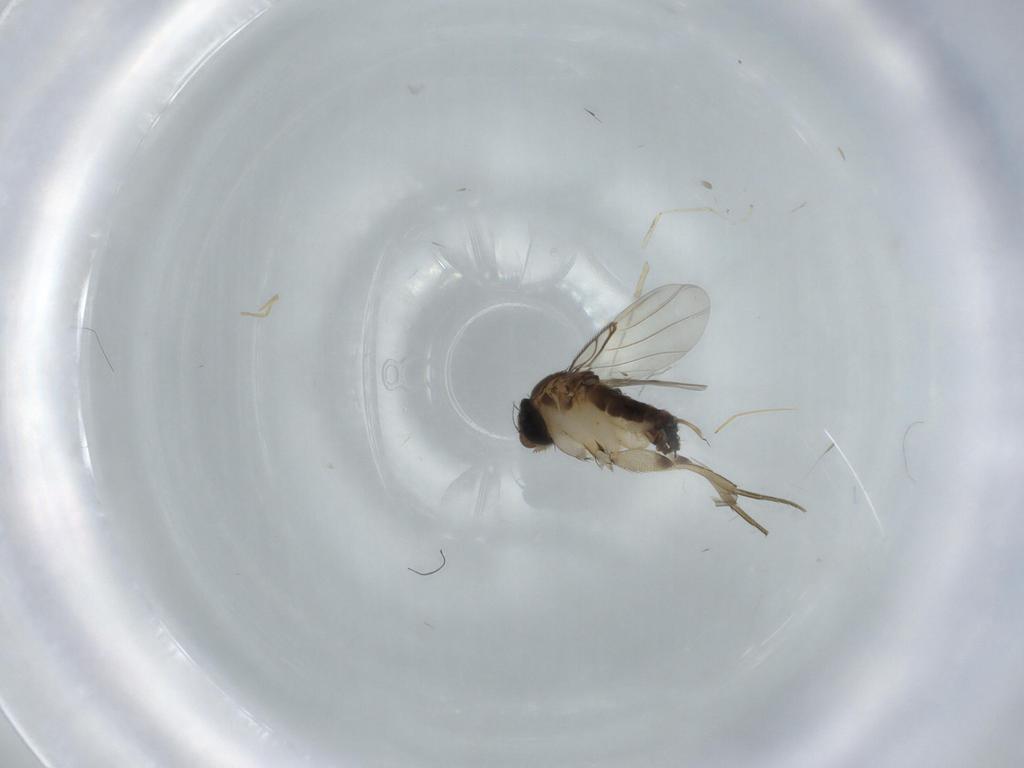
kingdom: Animalia
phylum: Arthropoda
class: Insecta
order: Diptera
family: Phoridae
